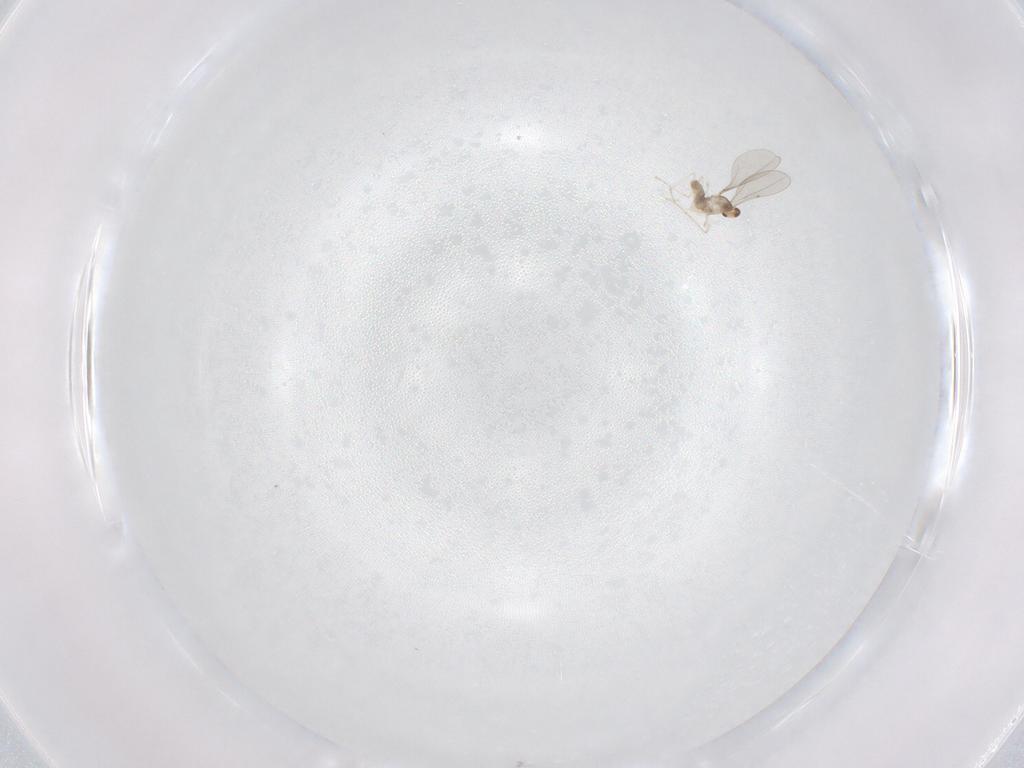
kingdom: Animalia
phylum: Arthropoda
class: Insecta
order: Diptera
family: Cecidomyiidae
